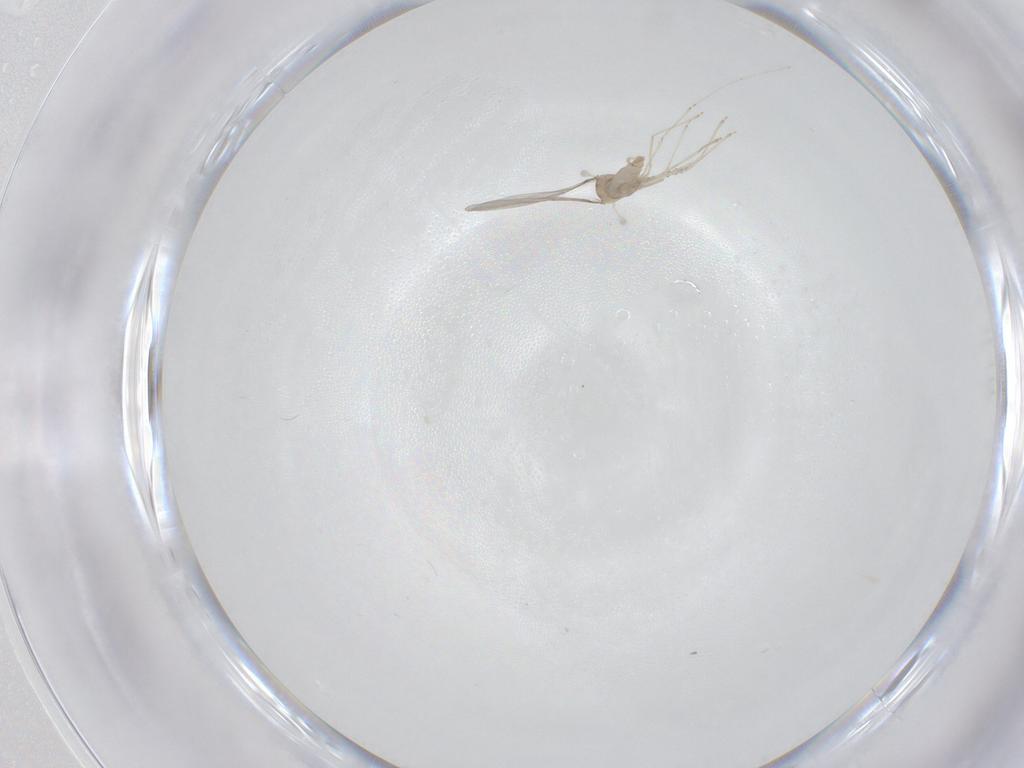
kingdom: Animalia
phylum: Arthropoda
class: Insecta
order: Diptera
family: Cecidomyiidae
